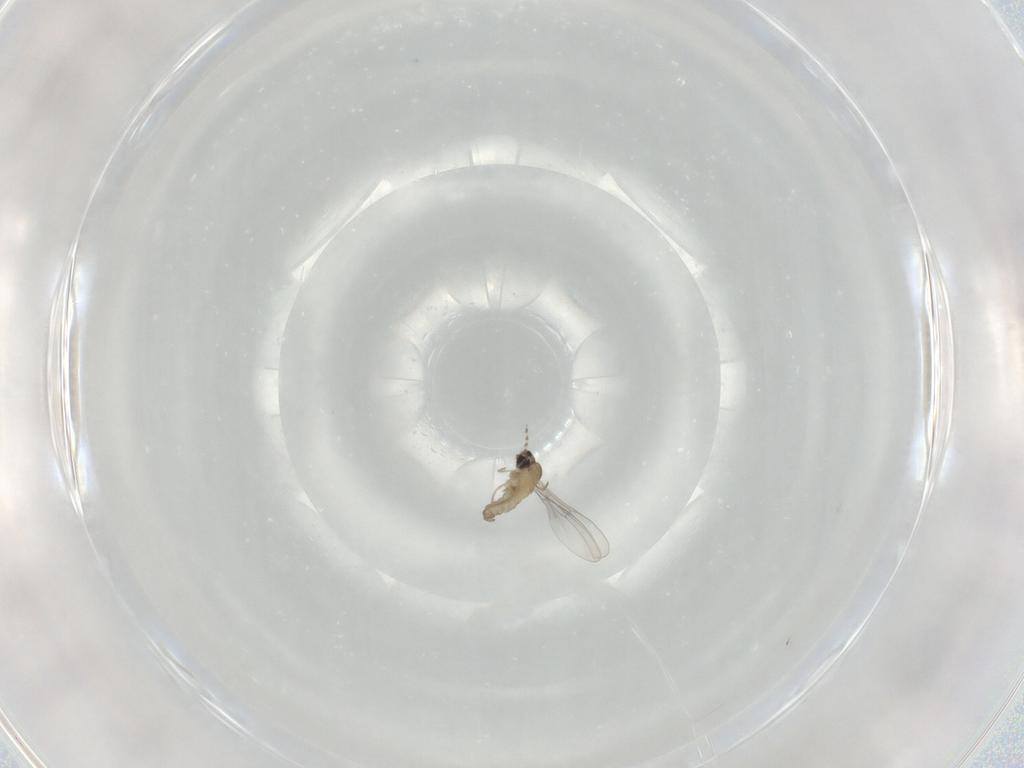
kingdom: Animalia
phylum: Arthropoda
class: Insecta
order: Diptera
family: Cecidomyiidae
